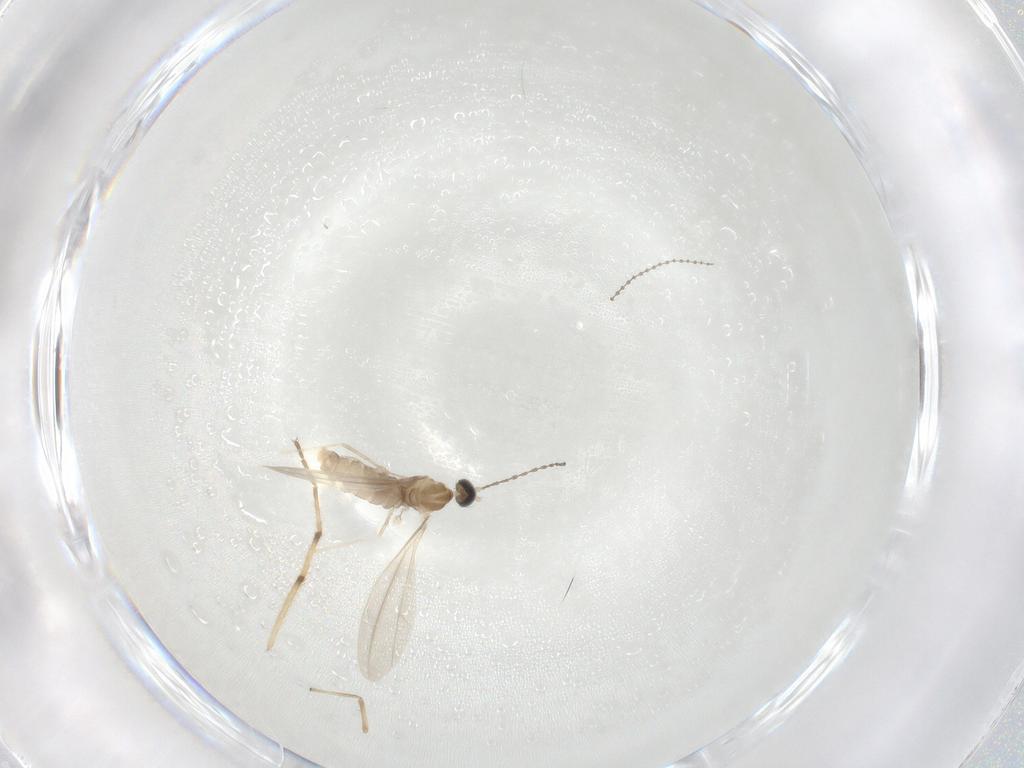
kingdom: Animalia
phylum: Arthropoda
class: Insecta
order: Diptera
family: Cecidomyiidae
